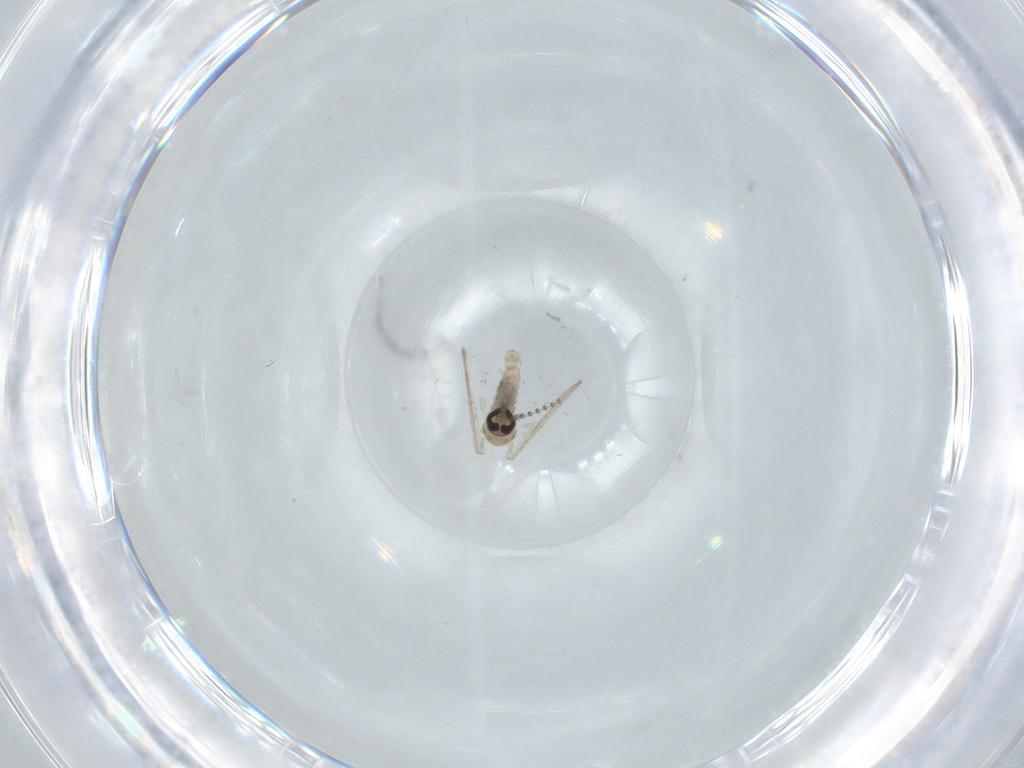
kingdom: Animalia
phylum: Arthropoda
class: Insecta
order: Diptera
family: Psychodidae
